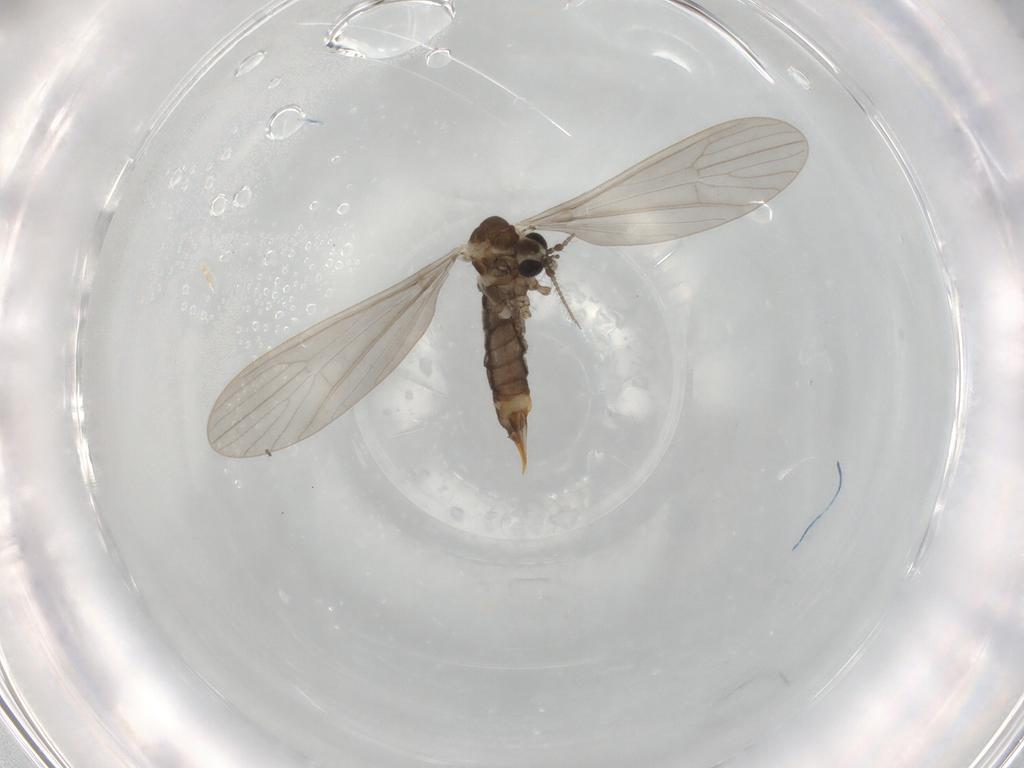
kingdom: Animalia
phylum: Arthropoda
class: Insecta
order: Diptera
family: Limoniidae
